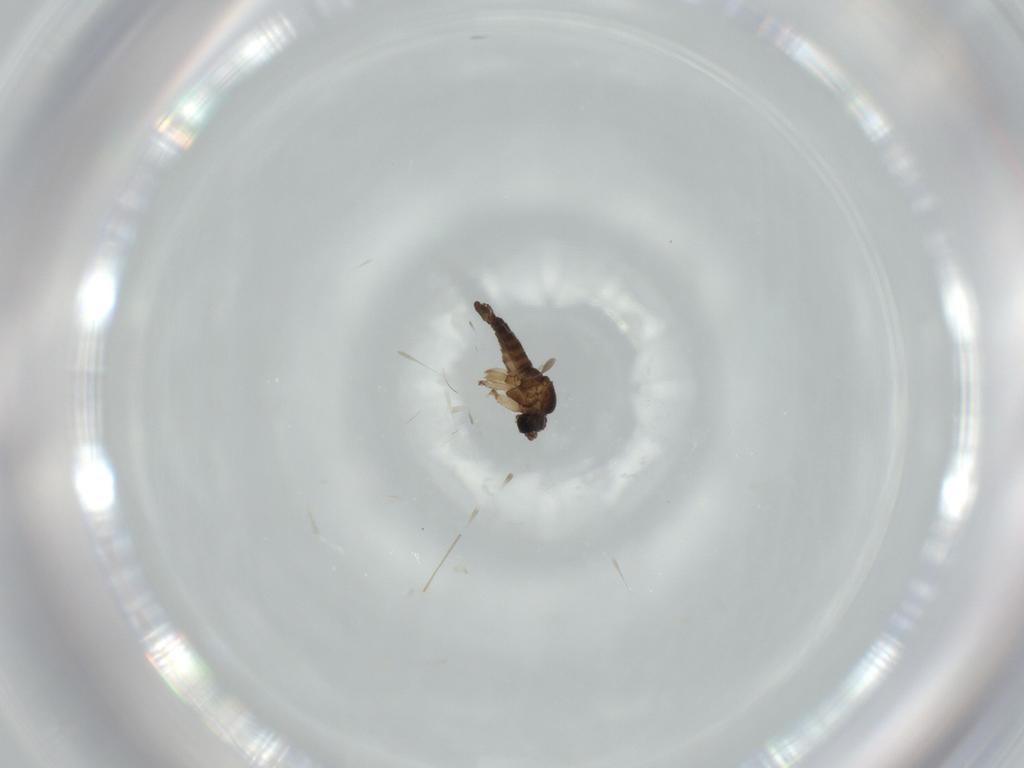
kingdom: Animalia
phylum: Arthropoda
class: Insecta
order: Diptera
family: Sciaridae
